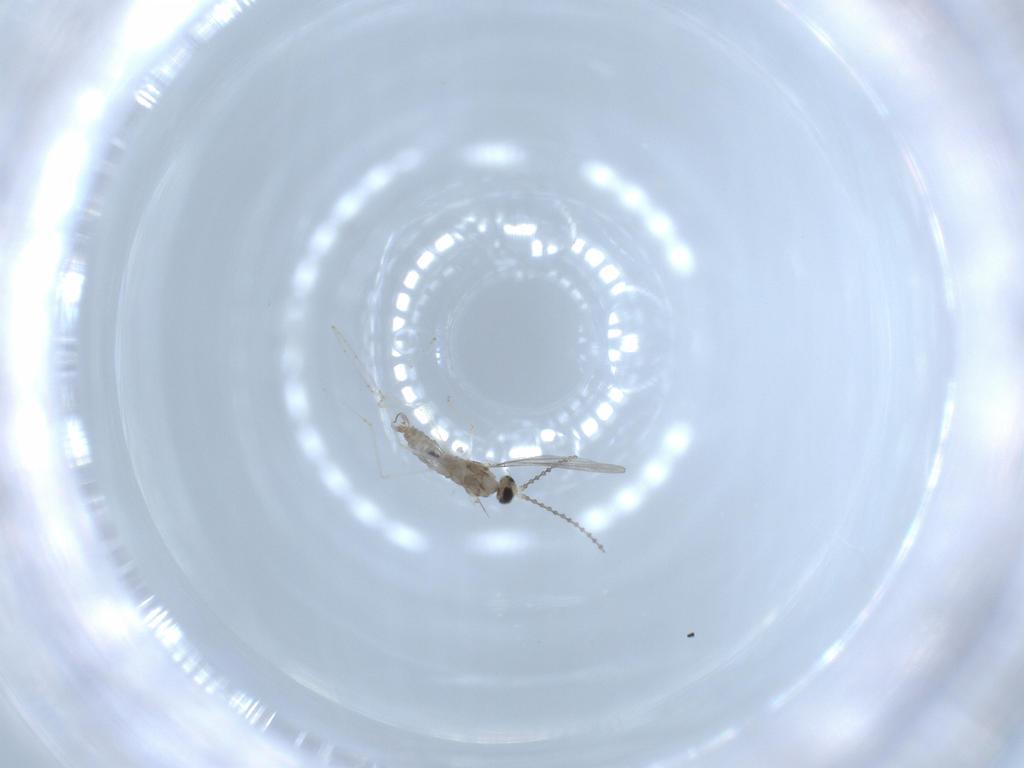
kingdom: Animalia
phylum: Arthropoda
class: Insecta
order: Diptera
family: Cecidomyiidae
